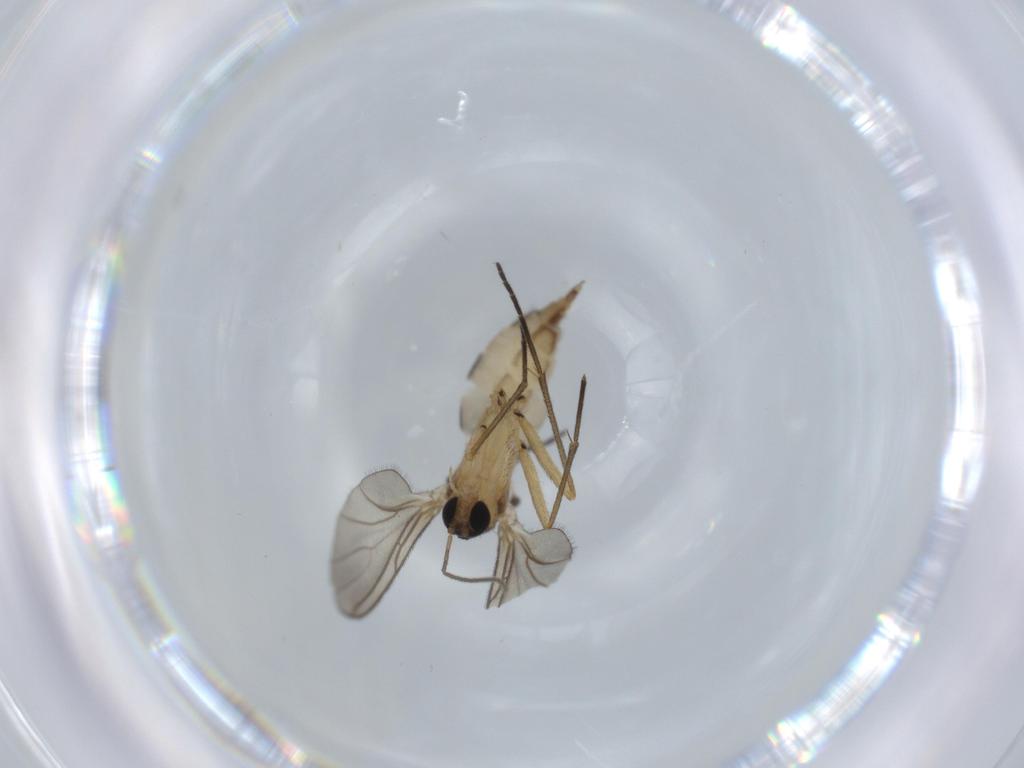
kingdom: Animalia
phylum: Arthropoda
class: Insecta
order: Diptera
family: Sciaridae
